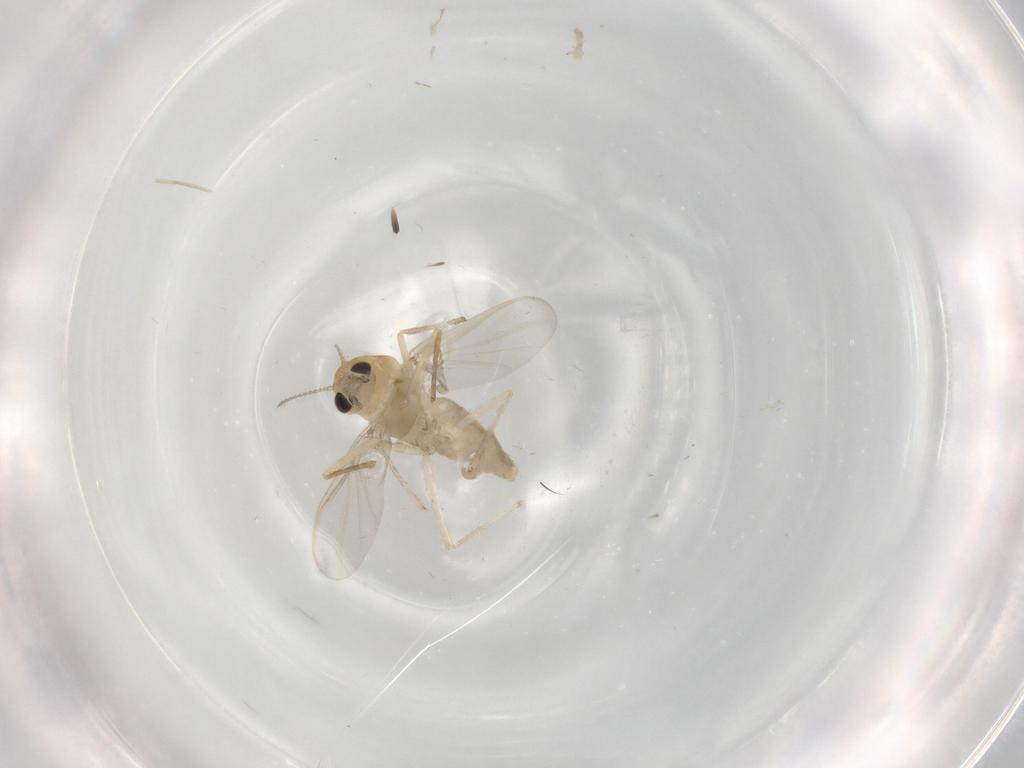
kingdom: Animalia
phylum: Arthropoda
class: Insecta
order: Diptera
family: Chironomidae
